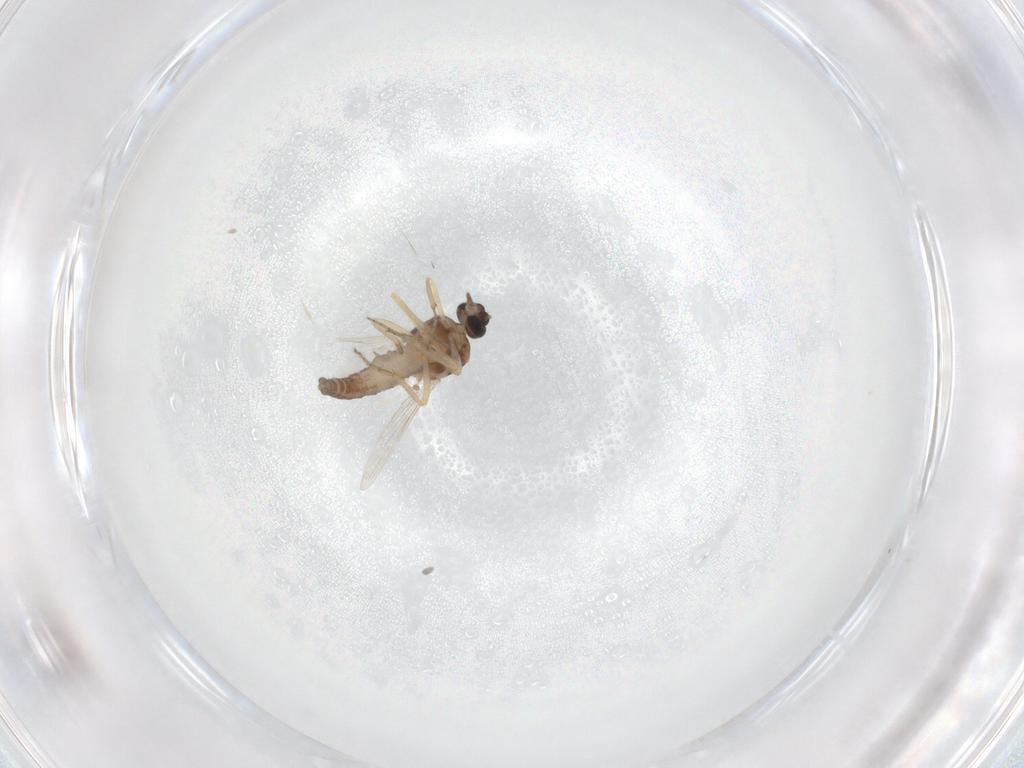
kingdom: Animalia
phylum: Arthropoda
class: Insecta
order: Diptera
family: Ceratopogonidae
